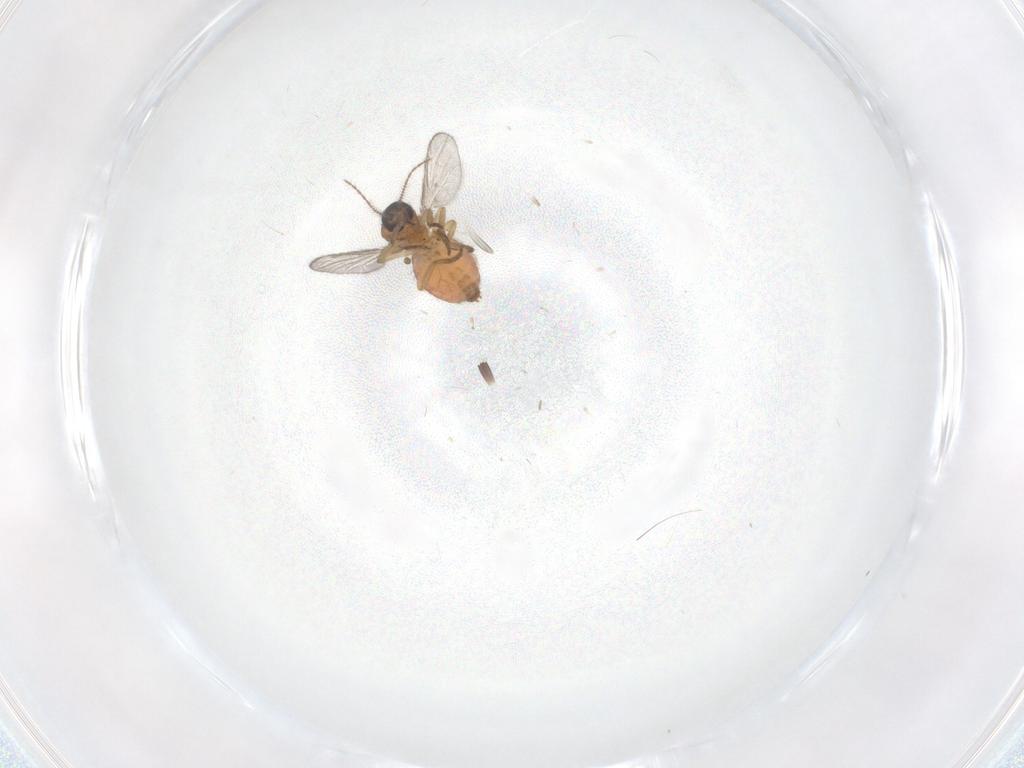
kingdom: Animalia
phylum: Arthropoda
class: Insecta
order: Diptera
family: Ceratopogonidae
